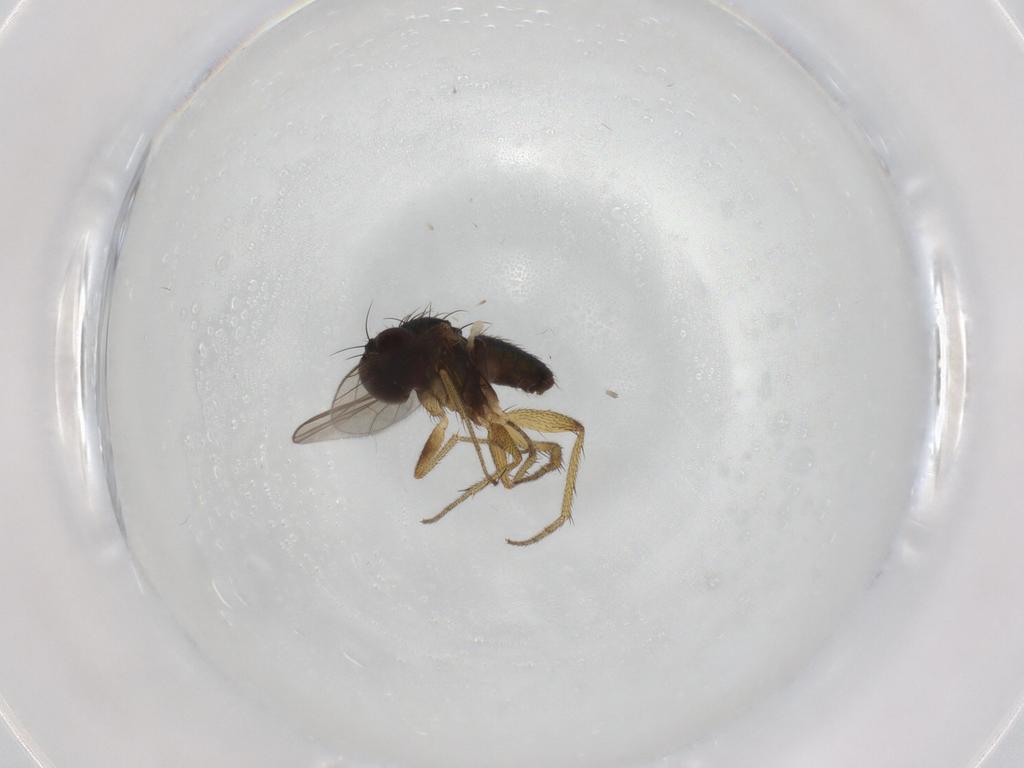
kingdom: Animalia
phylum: Arthropoda
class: Insecta
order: Diptera
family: Dolichopodidae
